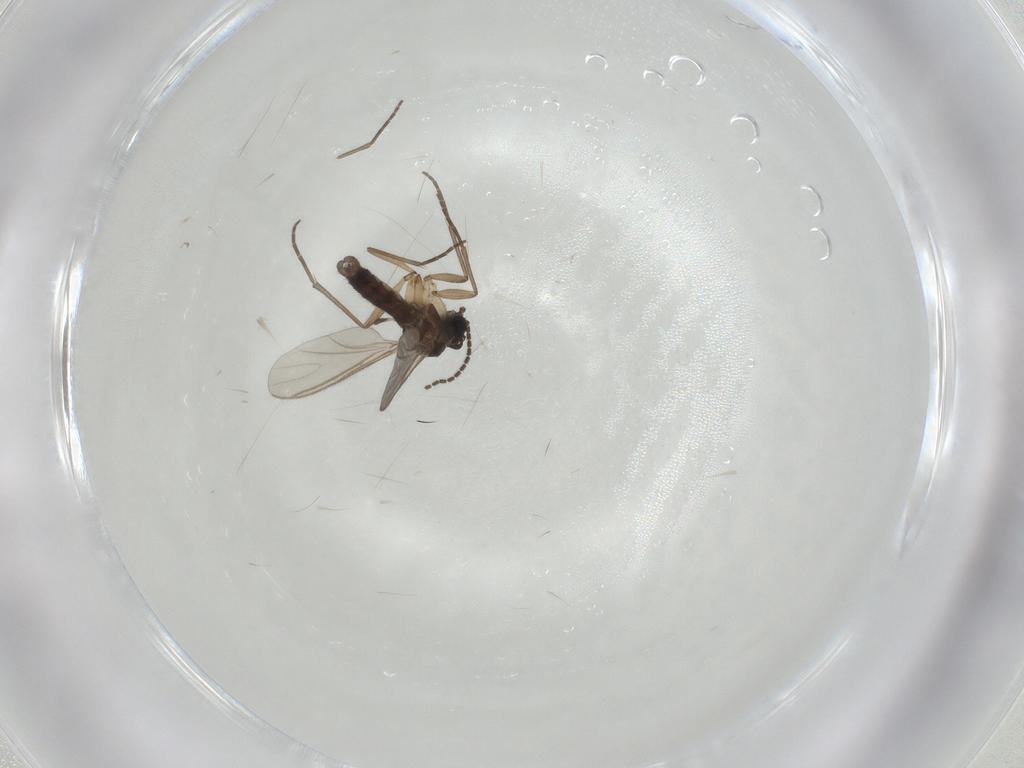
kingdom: Animalia
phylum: Arthropoda
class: Insecta
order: Diptera
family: Sciaridae
